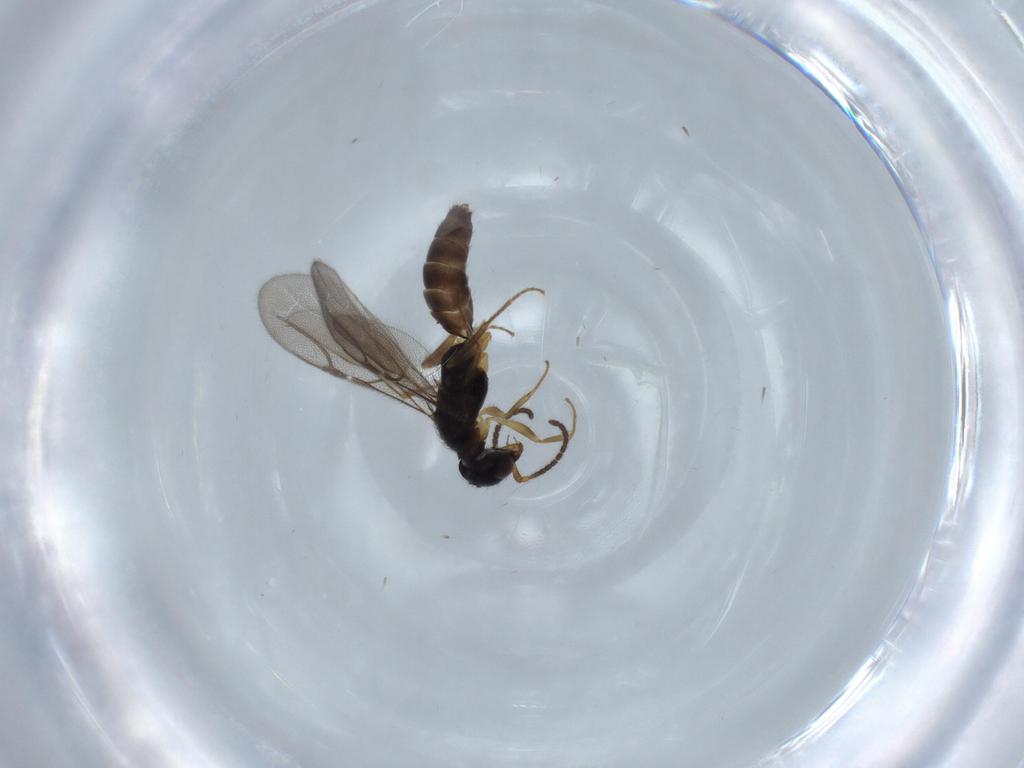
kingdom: Animalia
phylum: Arthropoda
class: Insecta
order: Hymenoptera
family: Bethylidae
